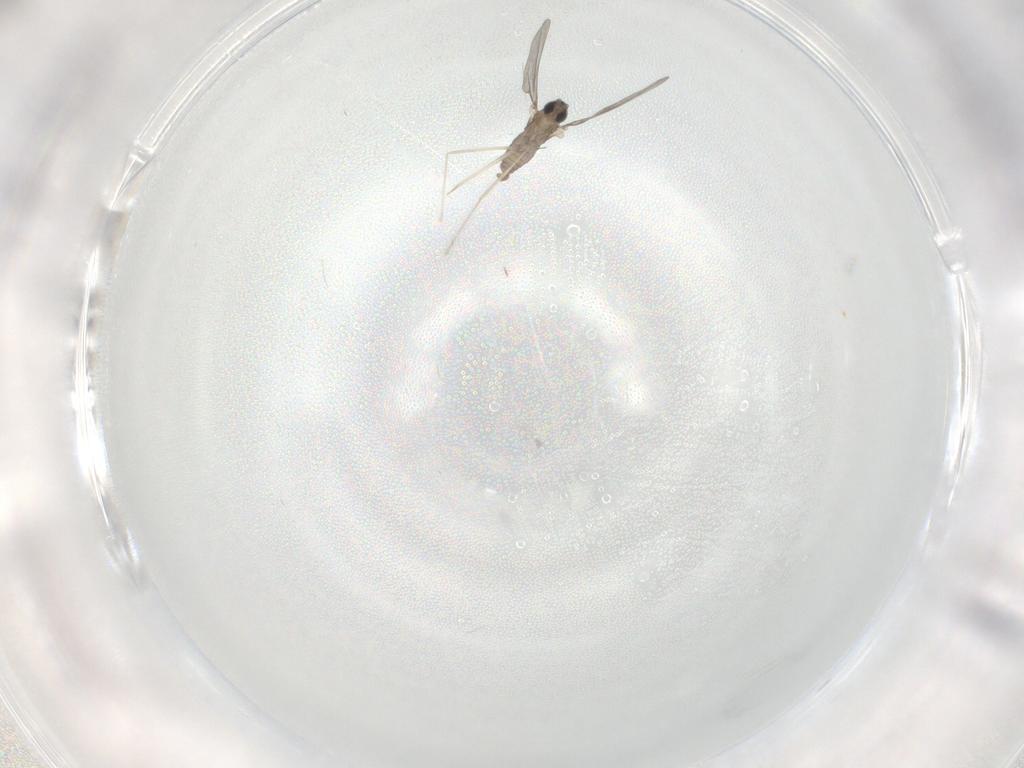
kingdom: Animalia
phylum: Arthropoda
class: Insecta
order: Diptera
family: Cecidomyiidae
